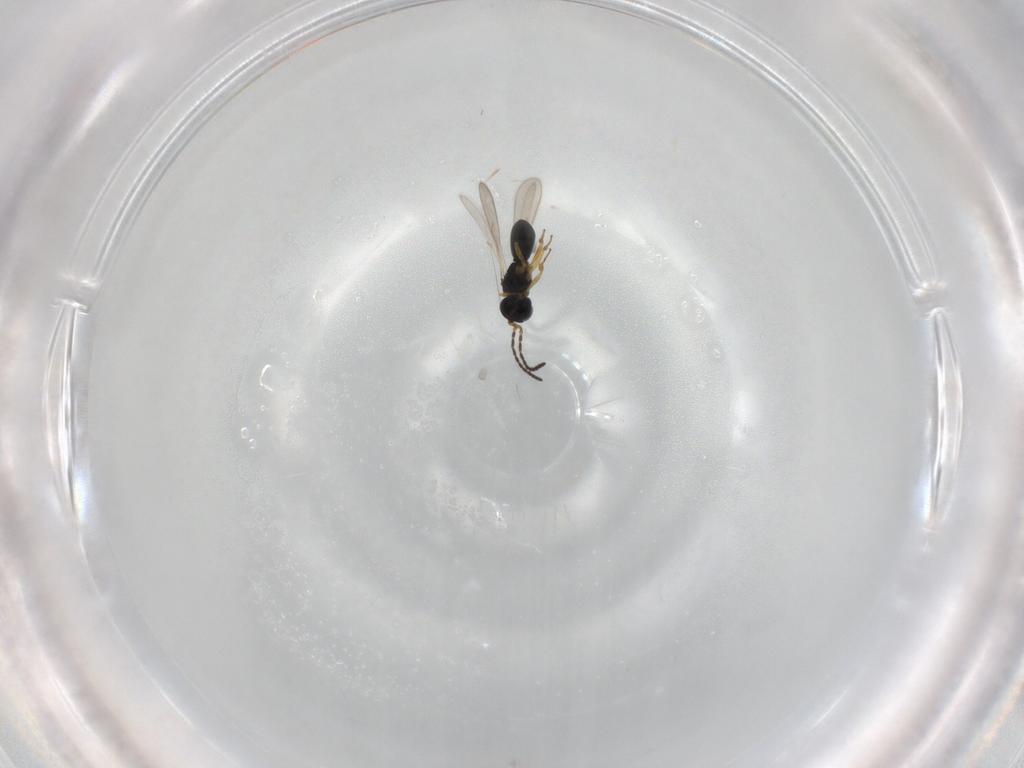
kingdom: Animalia
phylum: Arthropoda
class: Insecta
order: Hymenoptera
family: Scelionidae
